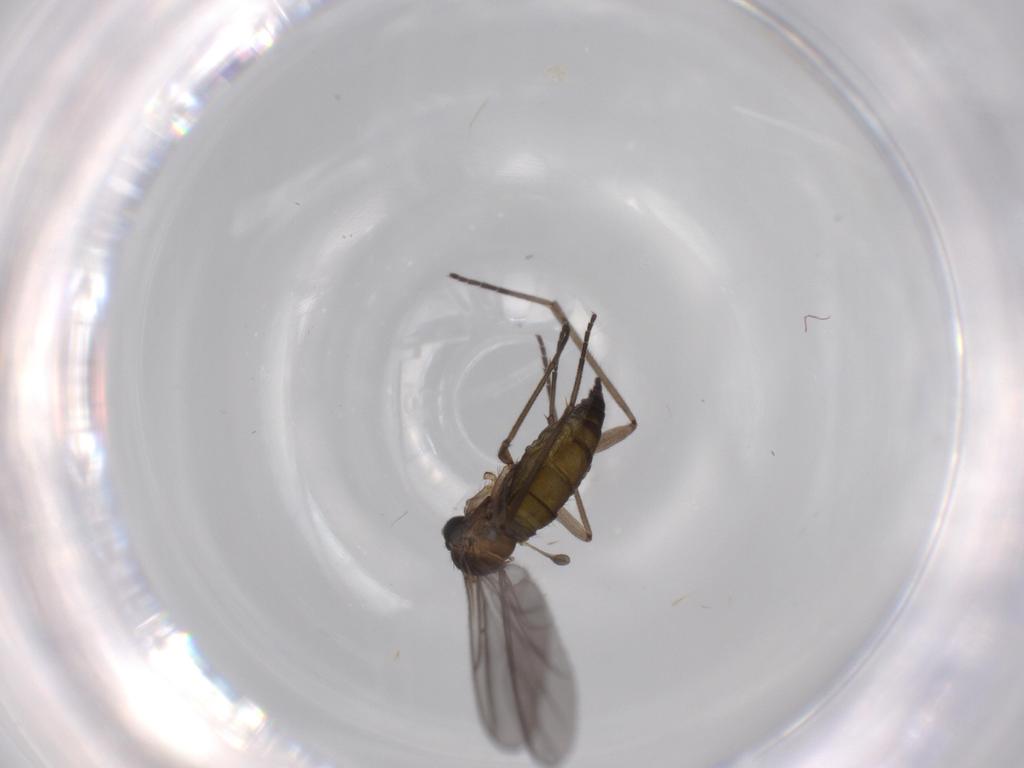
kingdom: Animalia
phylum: Arthropoda
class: Insecta
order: Diptera
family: Sciaridae
